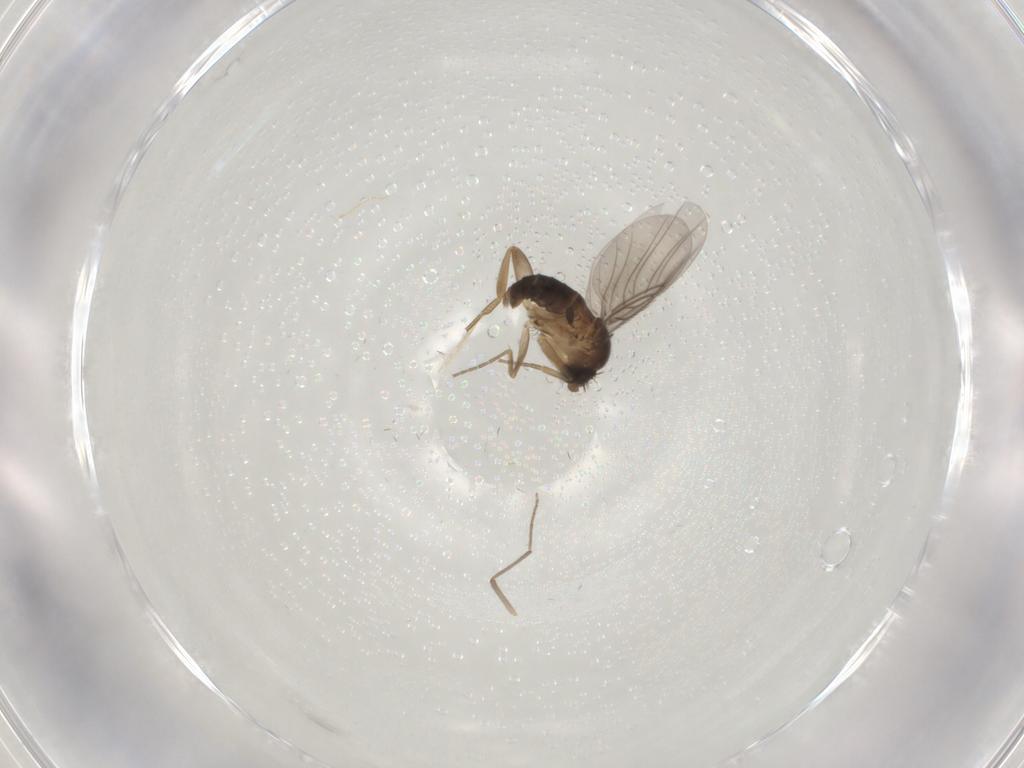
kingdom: Animalia
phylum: Arthropoda
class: Insecta
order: Diptera
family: Sciaridae
